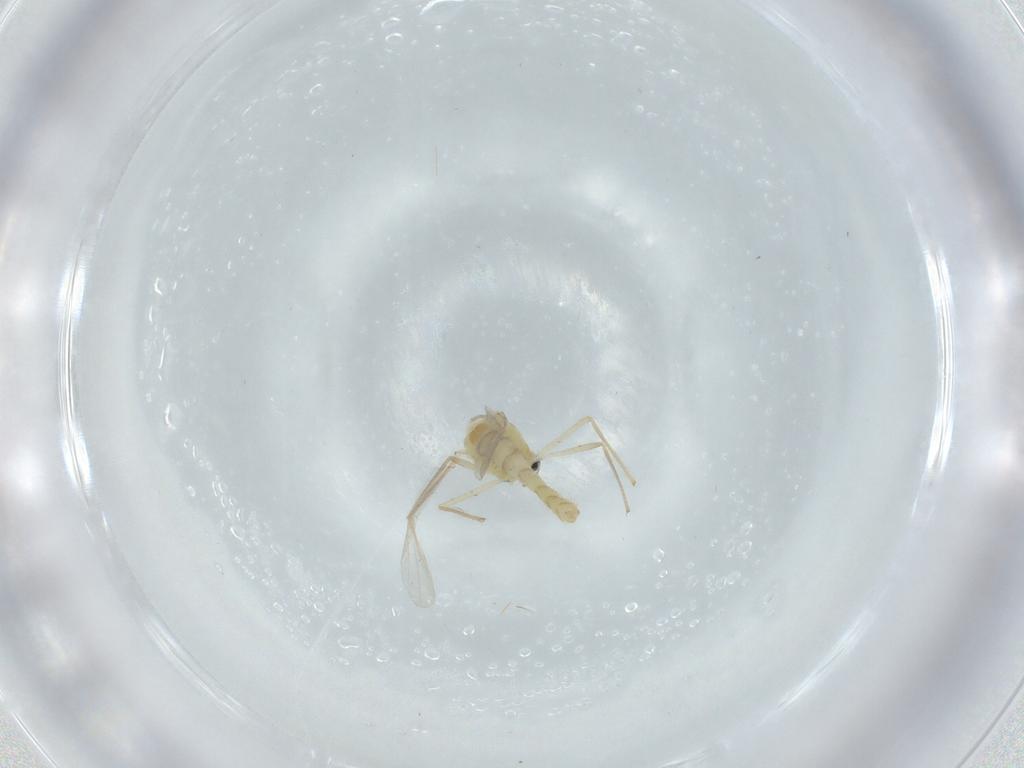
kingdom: Animalia
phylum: Arthropoda
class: Insecta
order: Diptera
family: Chironomidae
